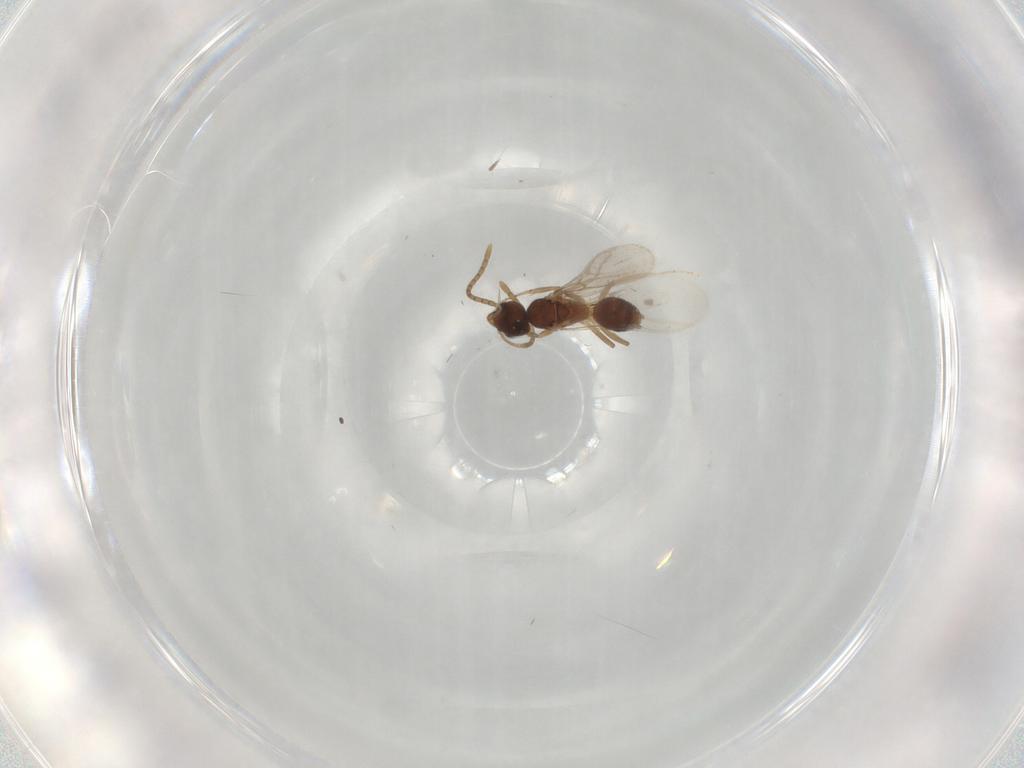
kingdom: Animalia
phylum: Arthropoda
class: Insecta
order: Hymenoptera
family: Formicidae
